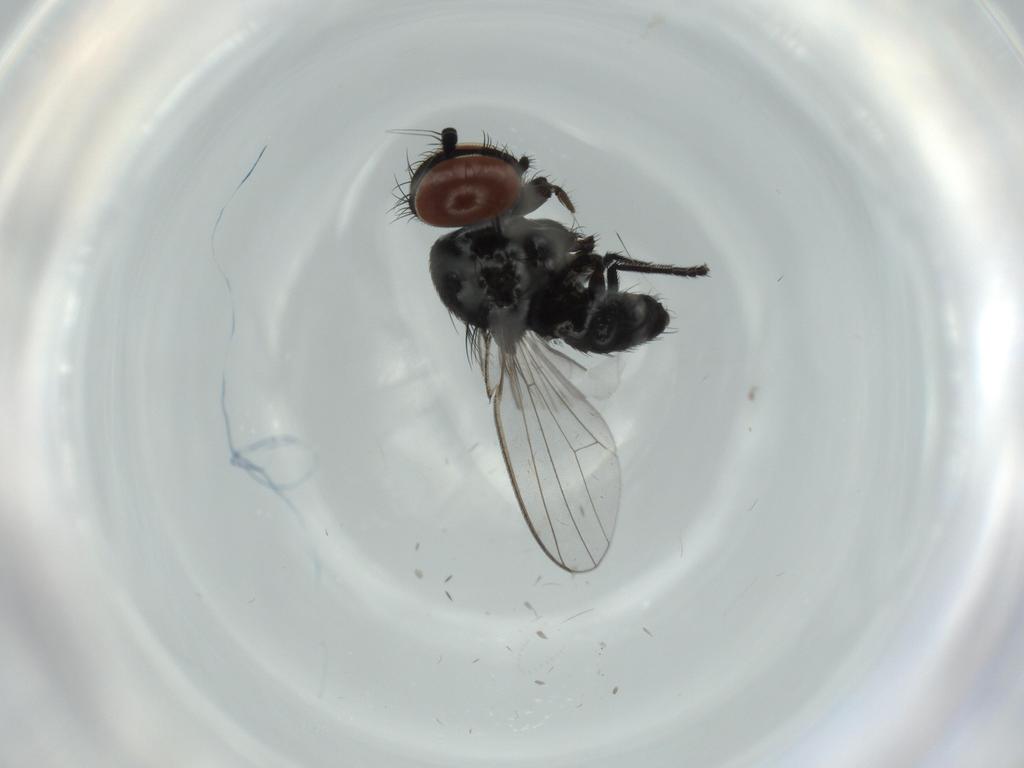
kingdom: Animalia
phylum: Arthropoda
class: Insecta
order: Diptera
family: Milichiidae
